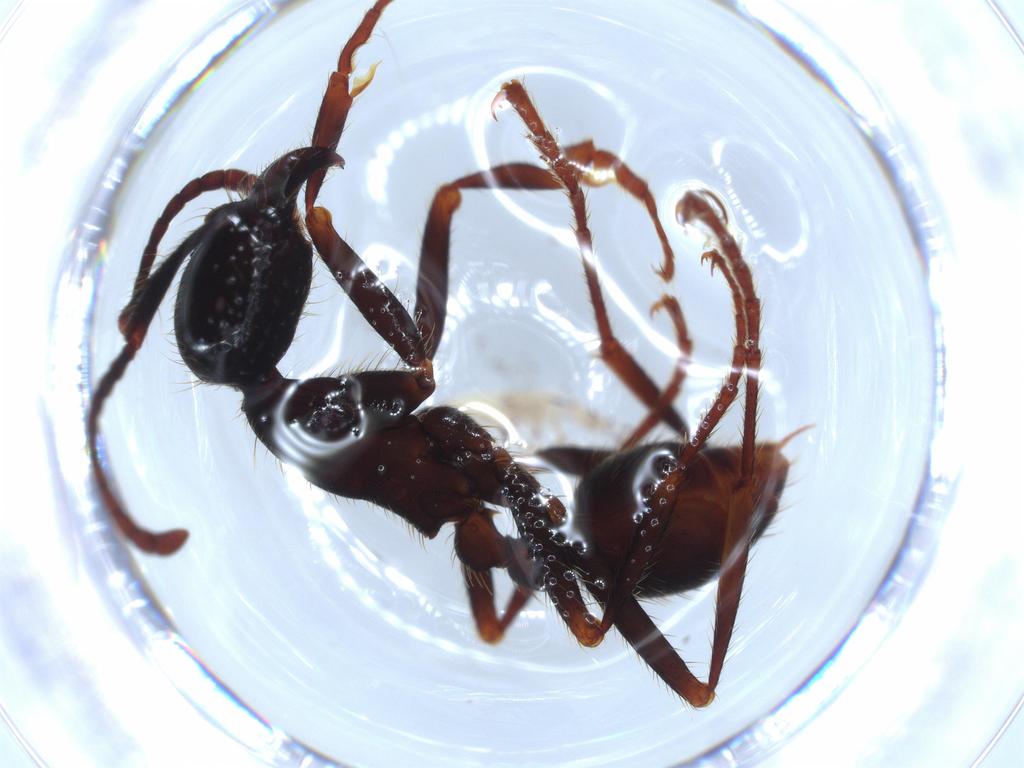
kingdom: Animalia
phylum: Arthropoda
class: Collembola
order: Entomobryomorpha
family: Entomobryidae
